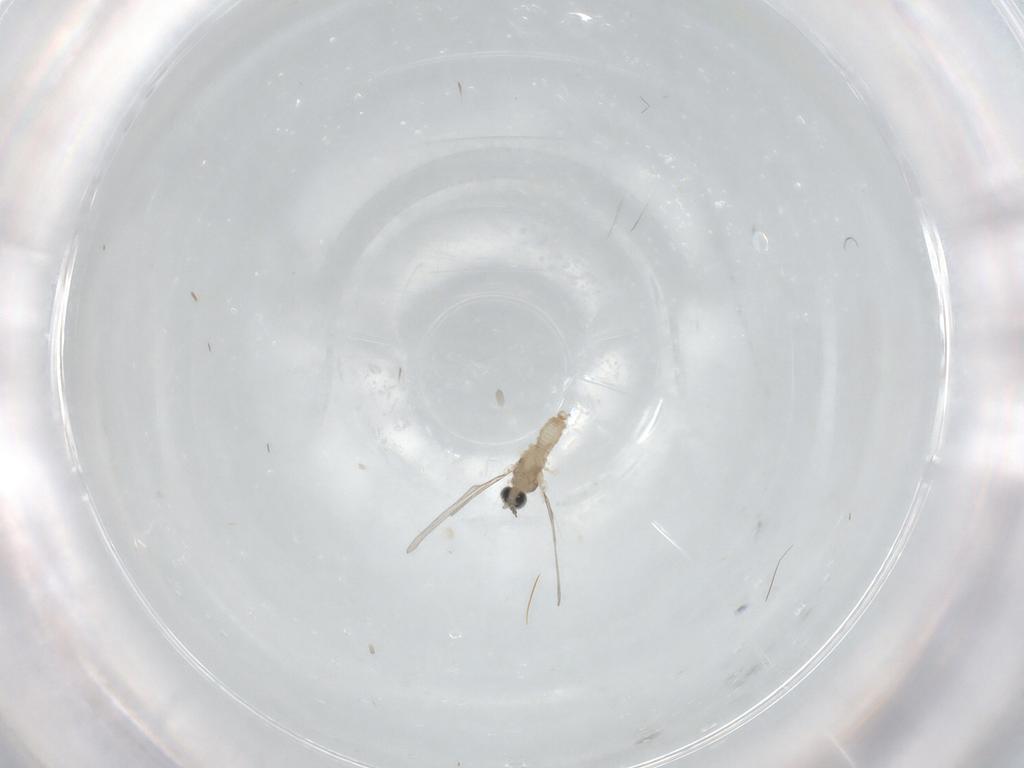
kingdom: Animalia
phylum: Arthropoda
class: Insecta
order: Diptera
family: Cecidomyiidae
